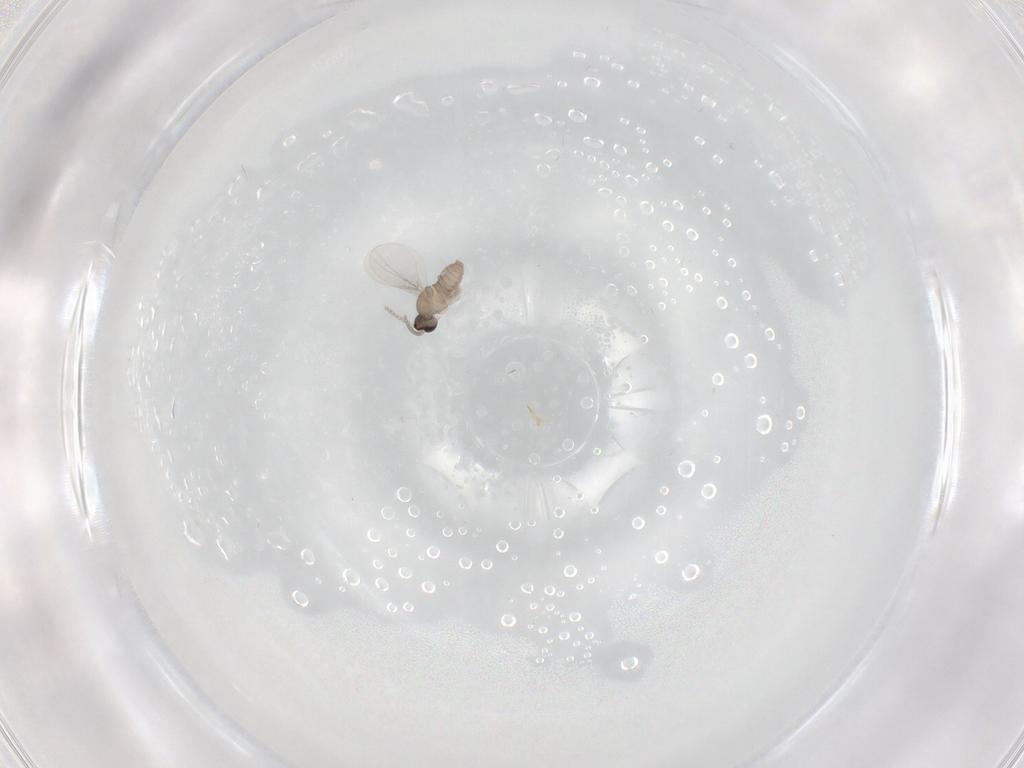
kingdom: Animalia
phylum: Arthropoda
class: Insecta
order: Diptera
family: Cecidomyiidae
